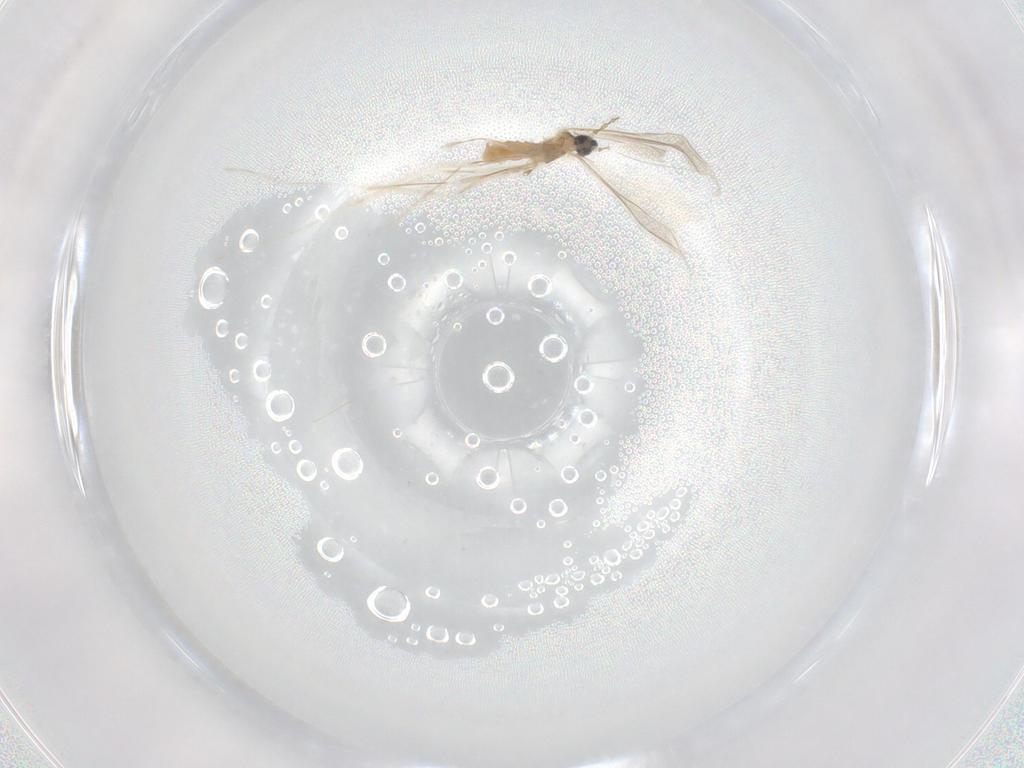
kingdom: Animalia
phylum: Arthropoda
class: Insecta
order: Diptera
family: Cecidomyiidae
